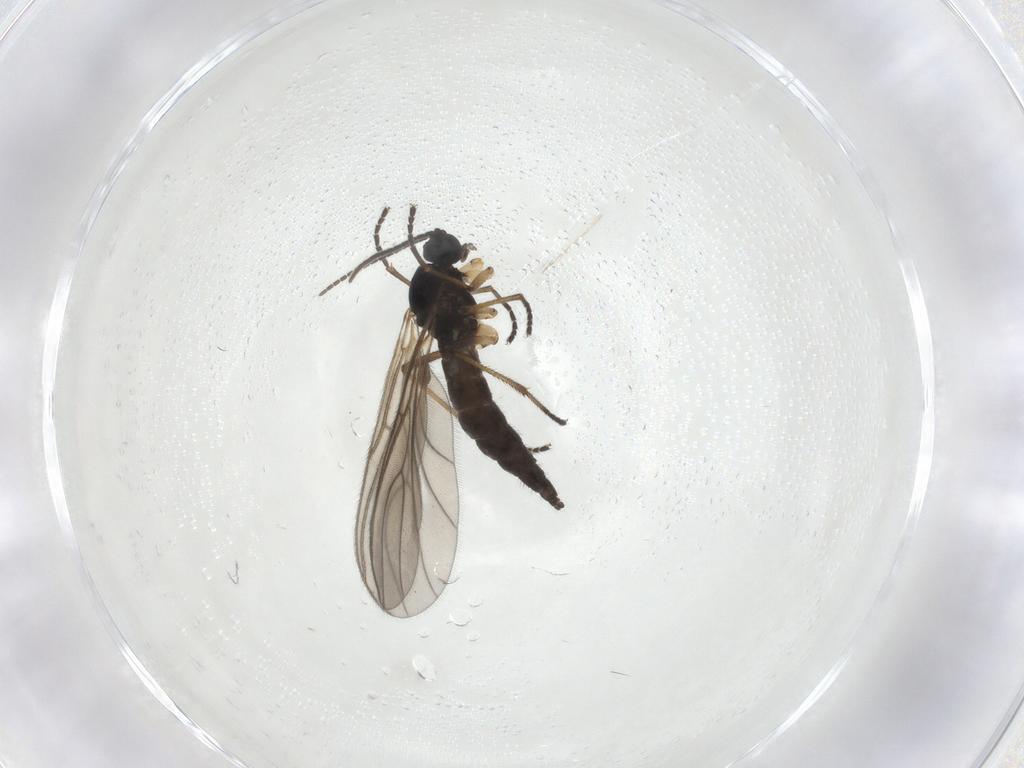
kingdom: Animalia
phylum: Arthropoda
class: Insecta
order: Diptera
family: Sciaridae
